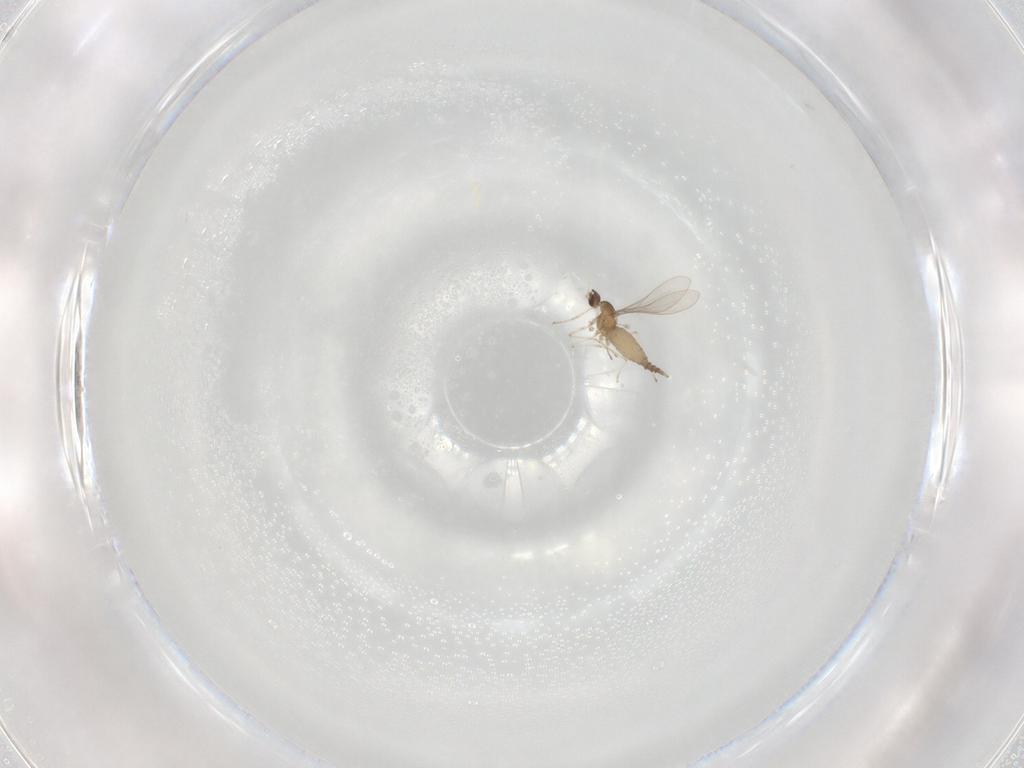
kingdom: Animalia
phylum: Arthropoda
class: Insecta
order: Diptera
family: Cecidomyiidae
